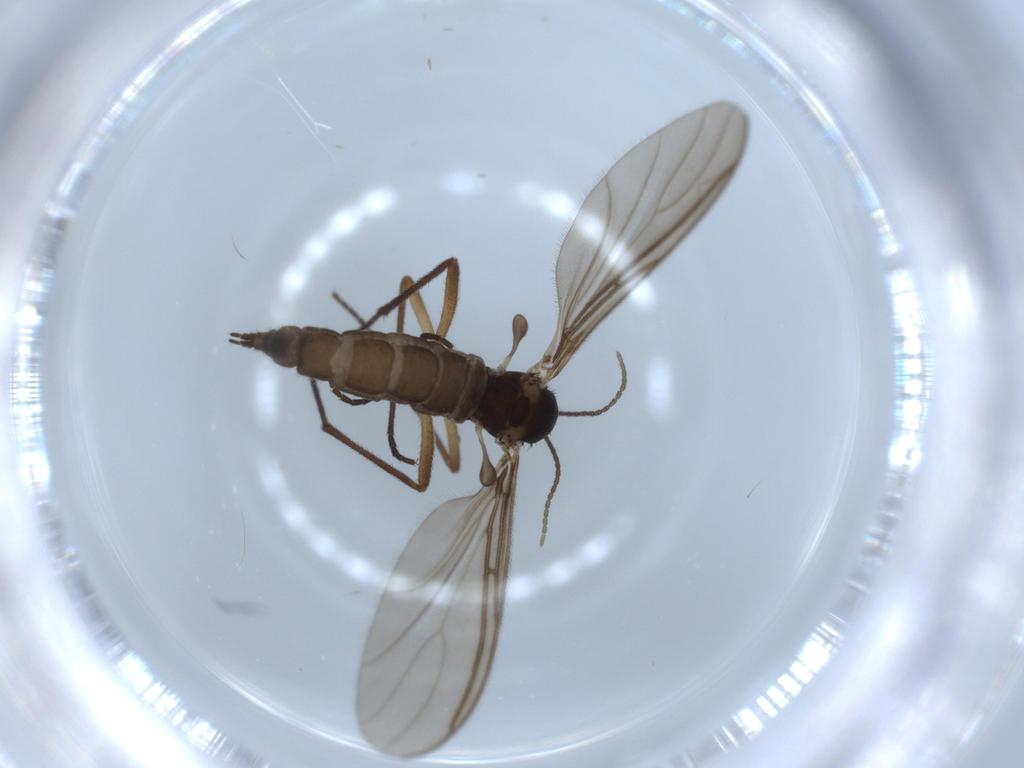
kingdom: Animalia
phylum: Arthropoda
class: Insecta
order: Diptera
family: Sciaridae
